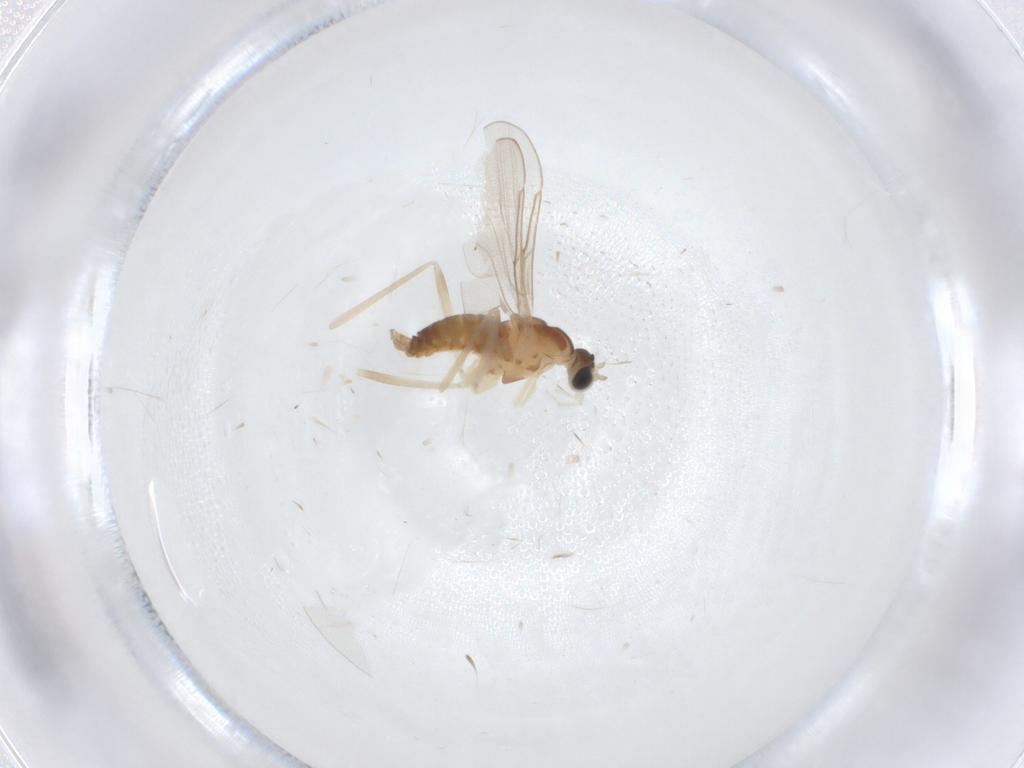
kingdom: Animalia
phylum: Arthropoda
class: Insecta
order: Diptera
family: Cecidomyiidae
